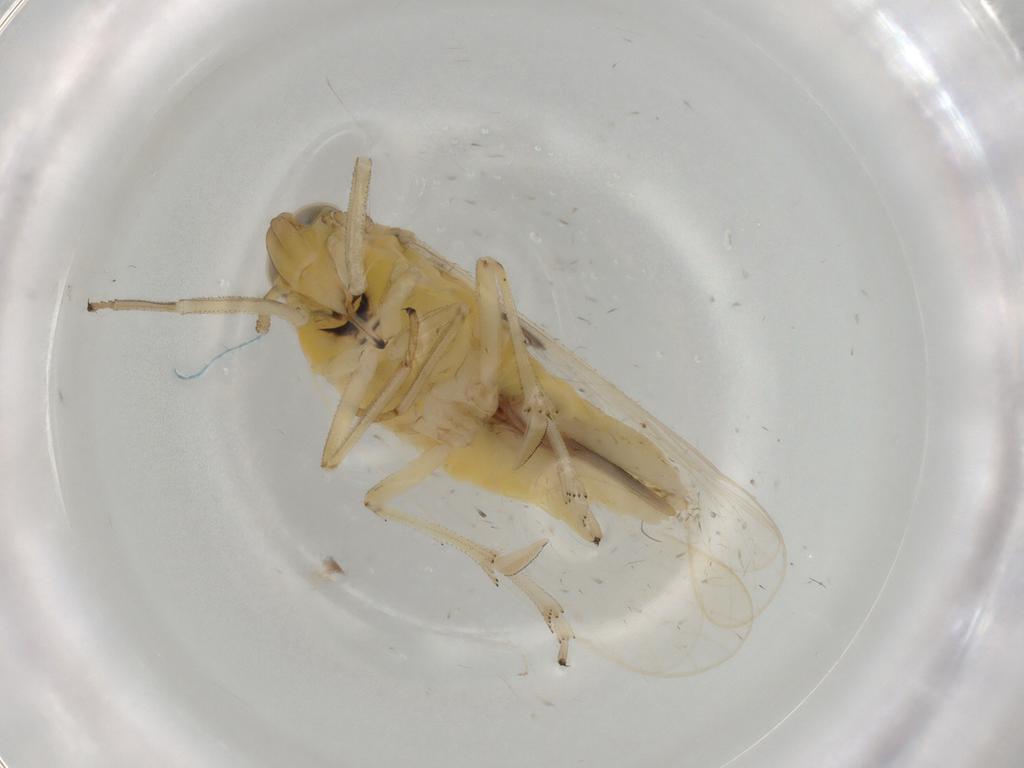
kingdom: Animalia
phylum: Arthropoda
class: Insecta
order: Hemiptera
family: Delphacidae
